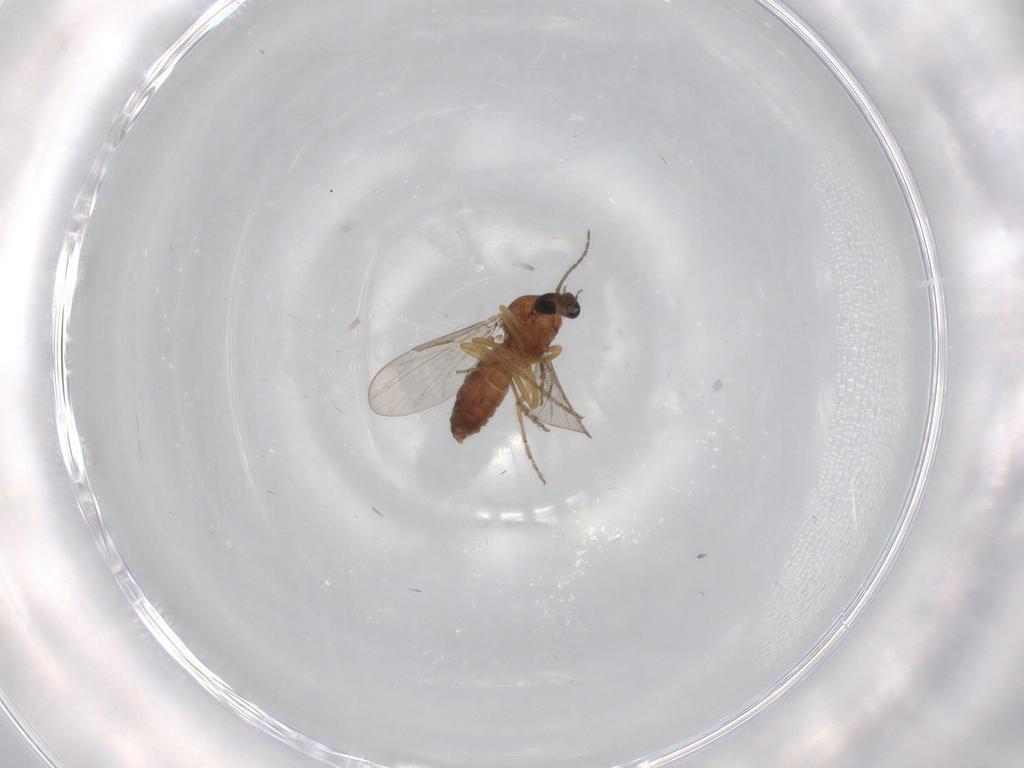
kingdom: Animalia
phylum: Arthropoda
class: Insecta
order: Diptera
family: Ceratopogonidae
